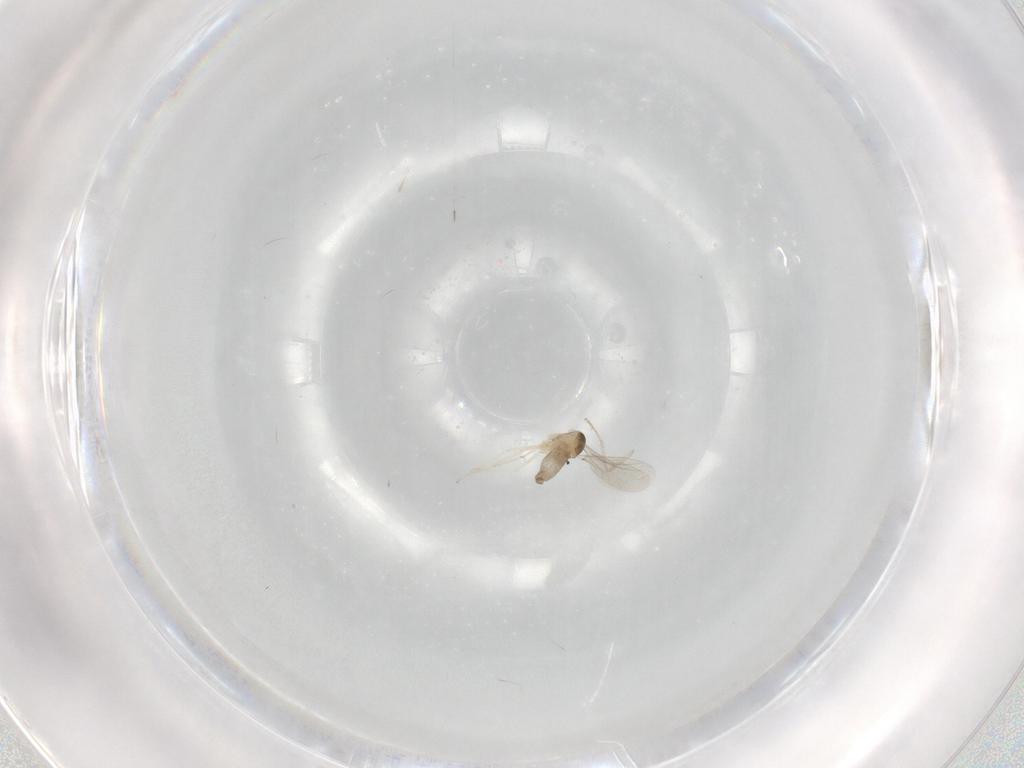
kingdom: Animalia
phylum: Arthropoda
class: Insecta
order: Diptera
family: Cecidomyiidae
